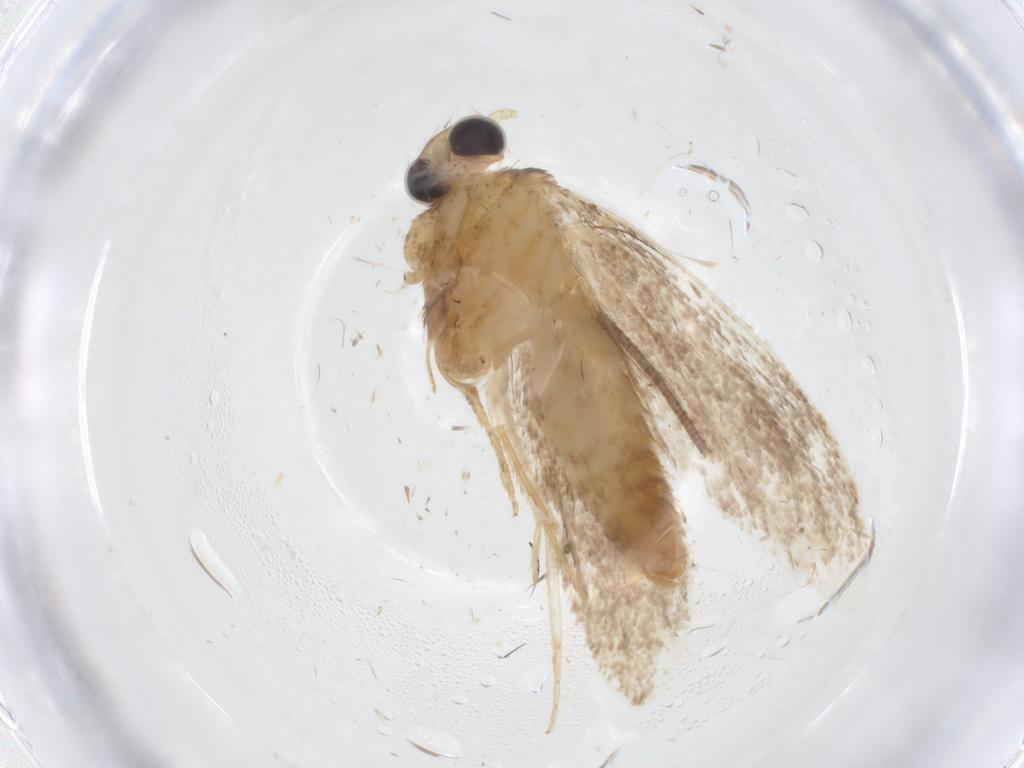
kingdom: Animalia
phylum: Arthropoda
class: Insecta
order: Lepidoptera
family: Tineidae
